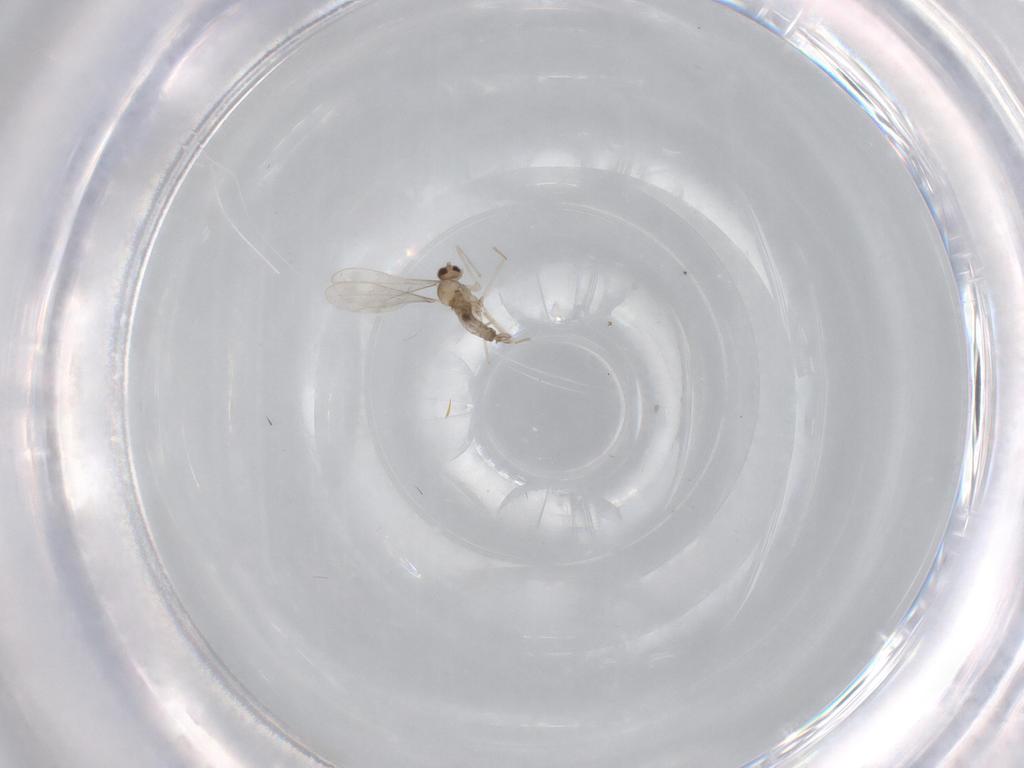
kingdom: Animalia
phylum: Arthropoda
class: Insecta
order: Diptera
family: Cecidomyiidae
